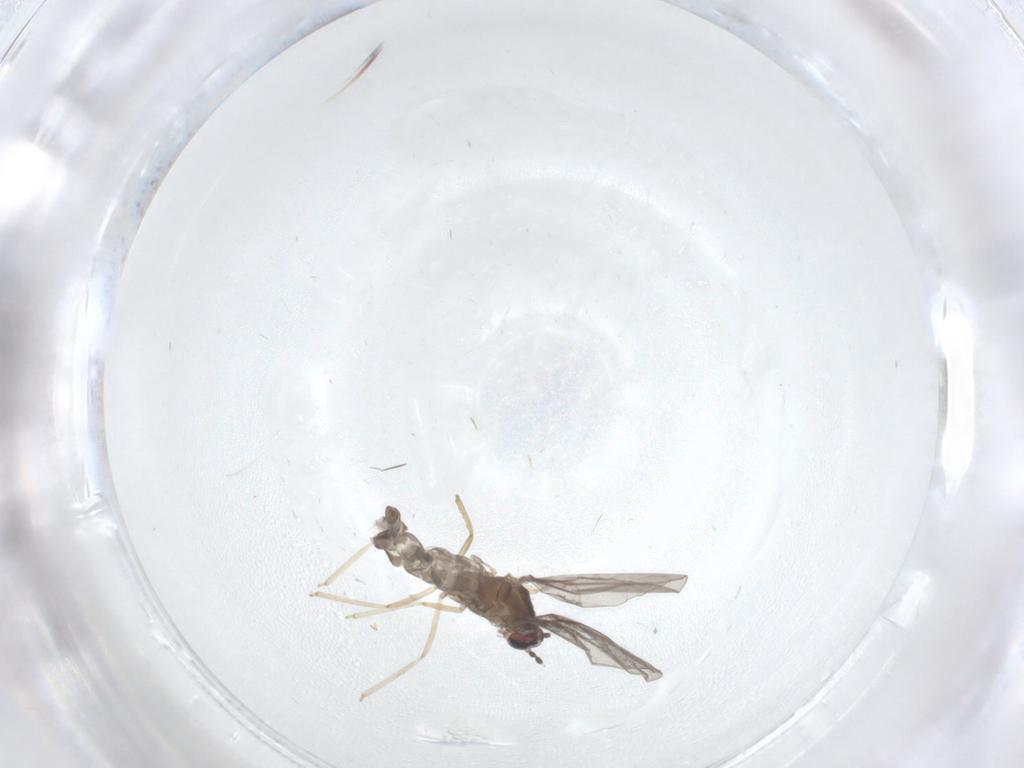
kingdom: Animalia
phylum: Arthropoda
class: Insecta
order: Diptera
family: Cecidomyiidae
